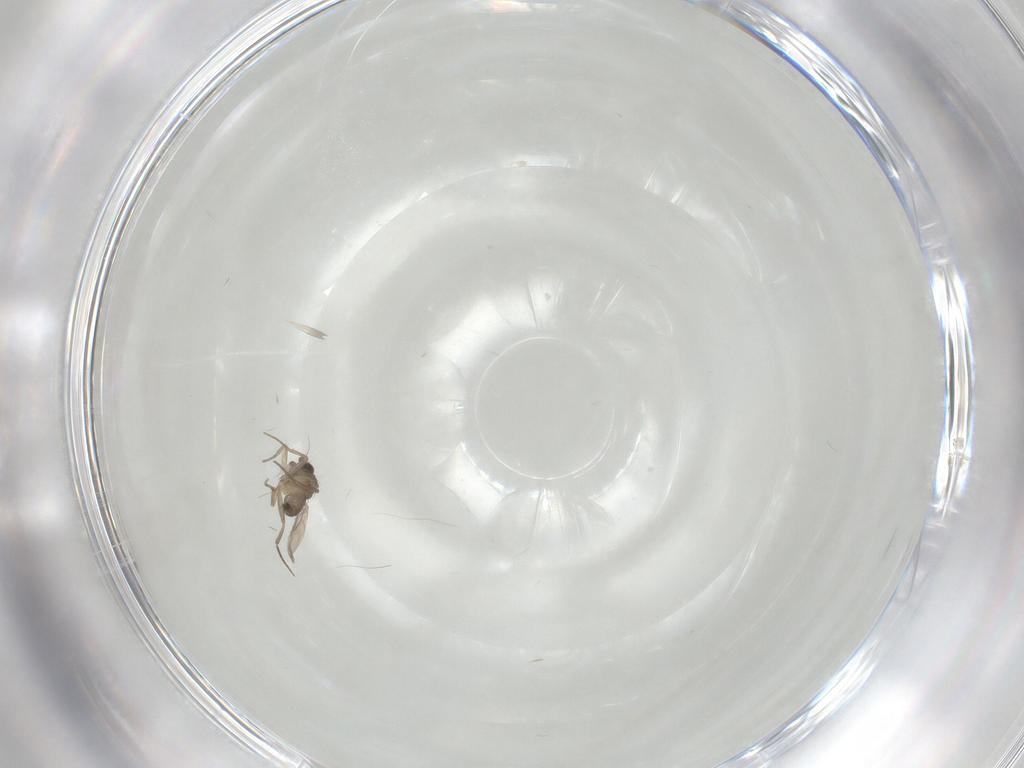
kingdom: Animalia
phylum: Arthropoda
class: Insecta
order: Diptera
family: Phoridae
